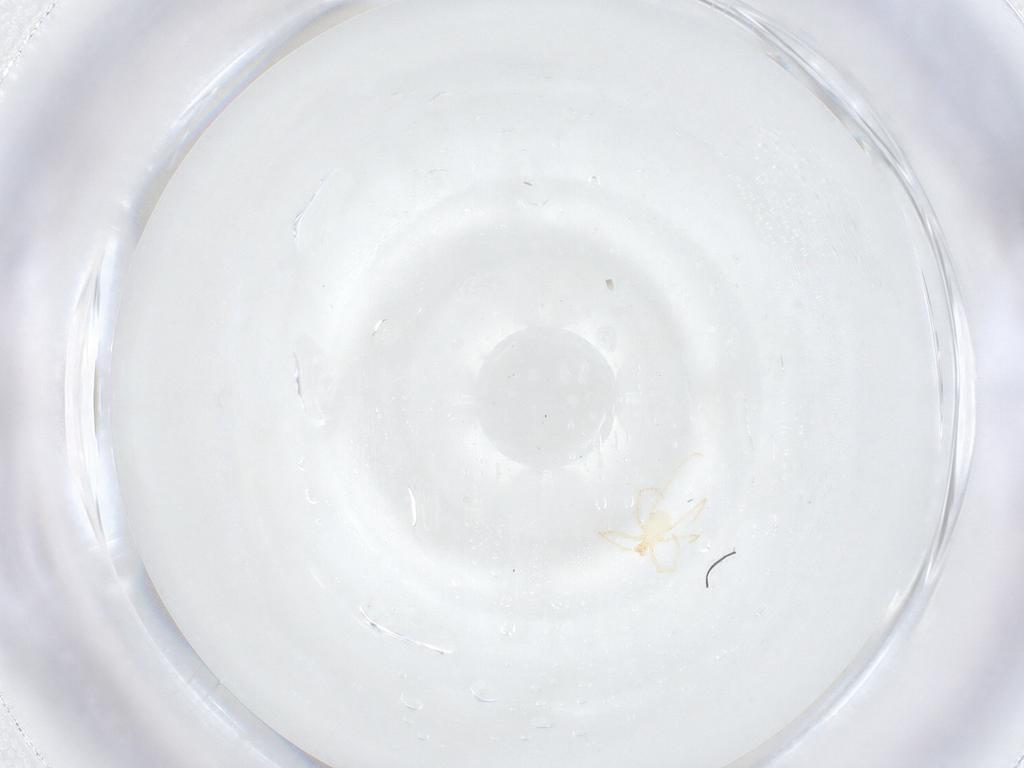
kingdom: Animalia
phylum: Arthropoda
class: Arachnida
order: Trombidiformes
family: Erythraeidae
